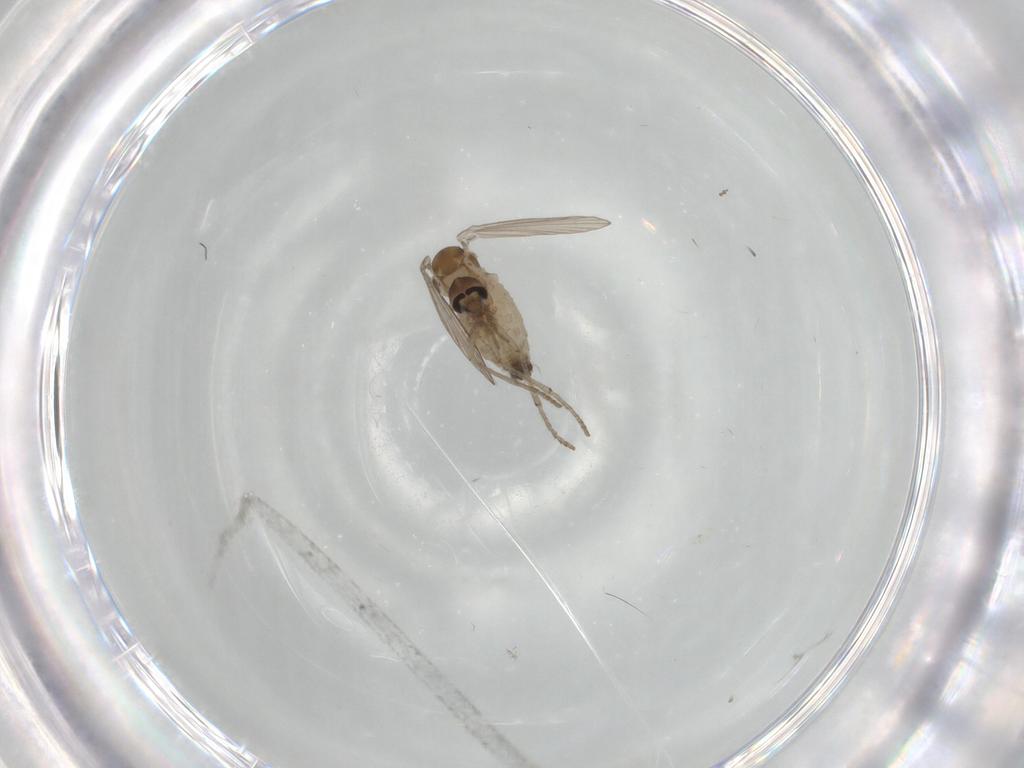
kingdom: Animalia
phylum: Arthropoda
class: Insecta
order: Diptera
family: Psychodidae
